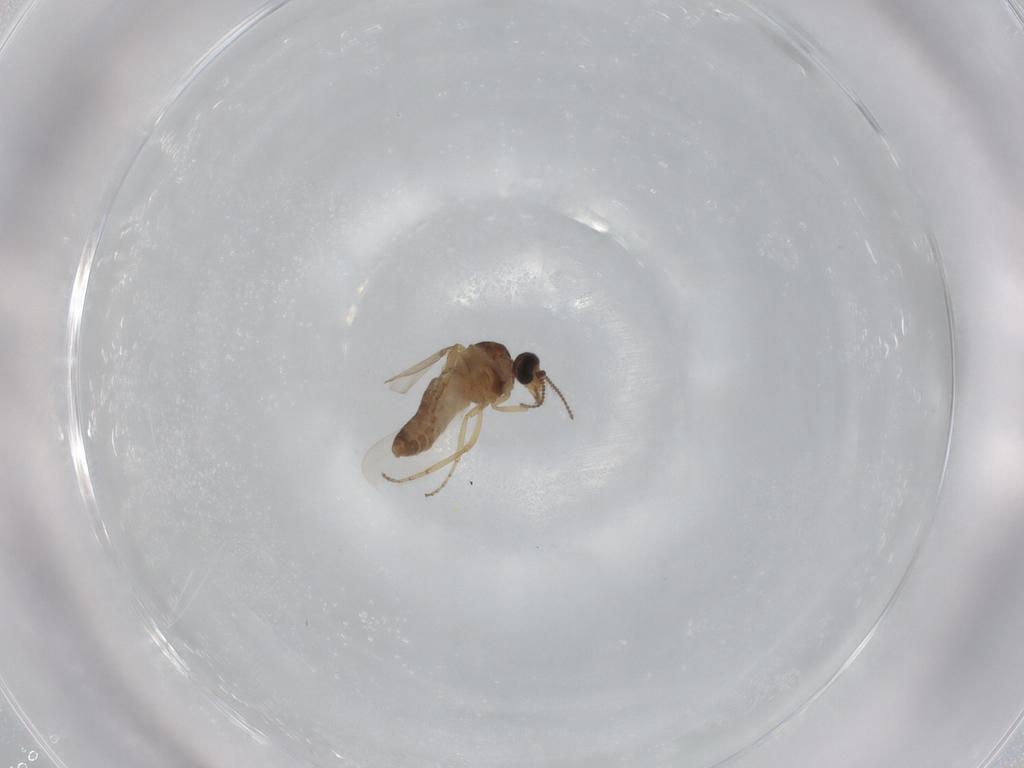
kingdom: Animalia
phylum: Arthropoda
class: Insecta
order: Diptera
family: Ceratopogonidae
